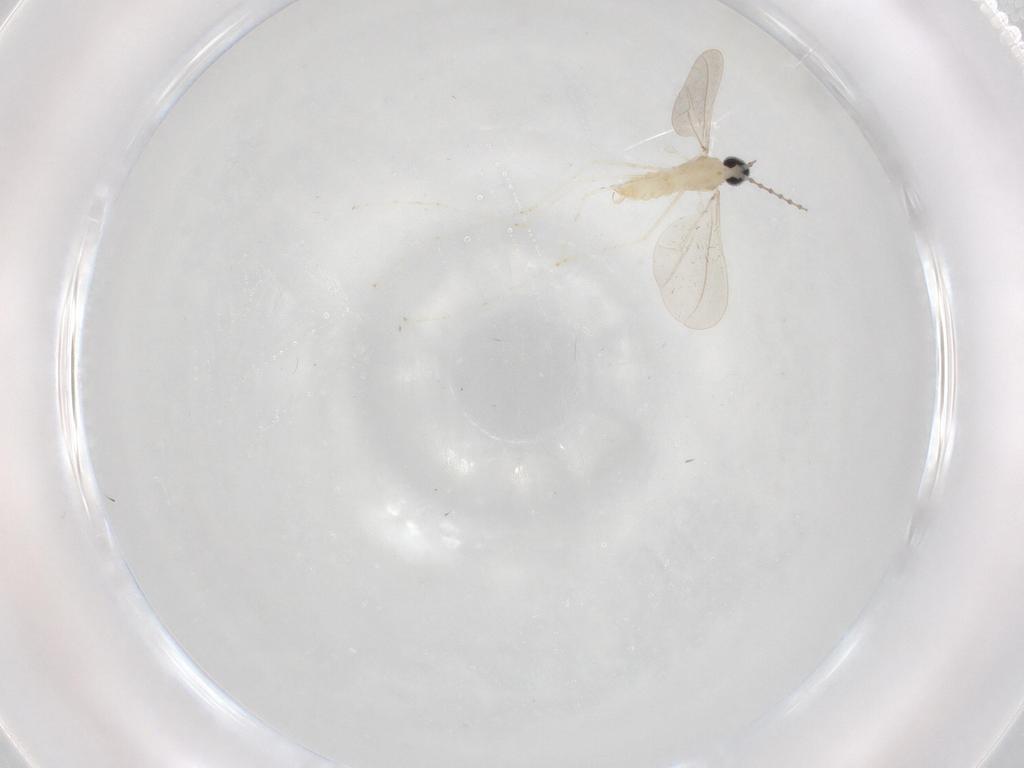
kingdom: Animalia
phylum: Arthropoda
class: Insecta
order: Diptera
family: Cecidomyiidae
